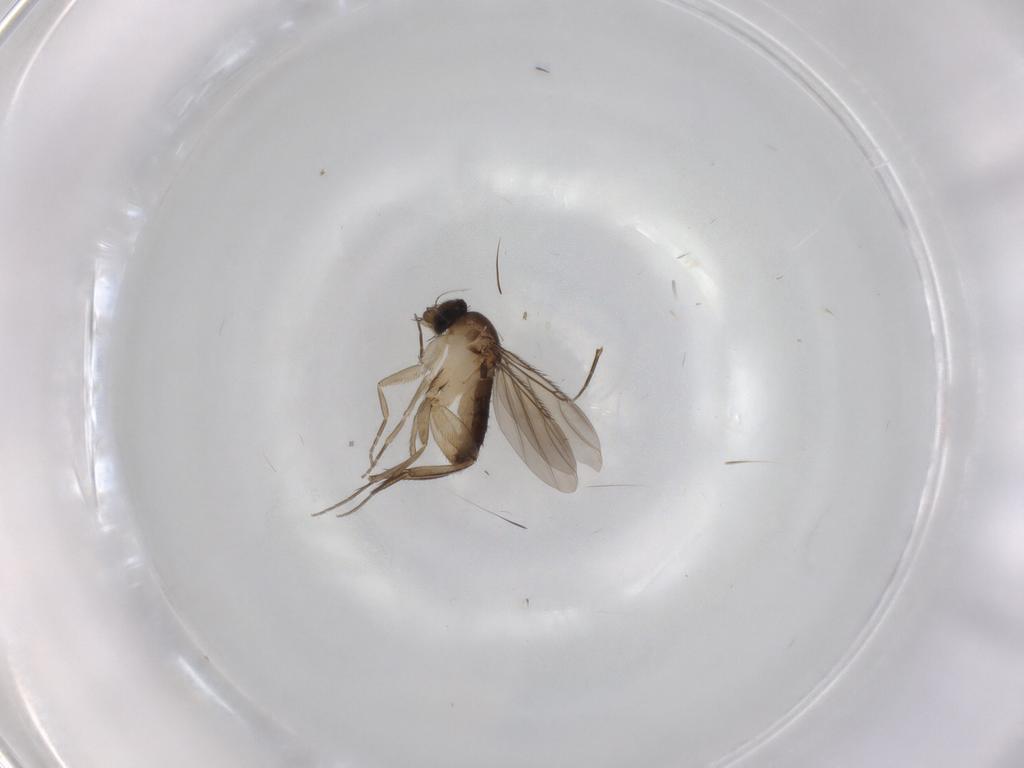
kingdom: Animalia
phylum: Arthropoda
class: Insecta
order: Diptera
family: Phoridae
